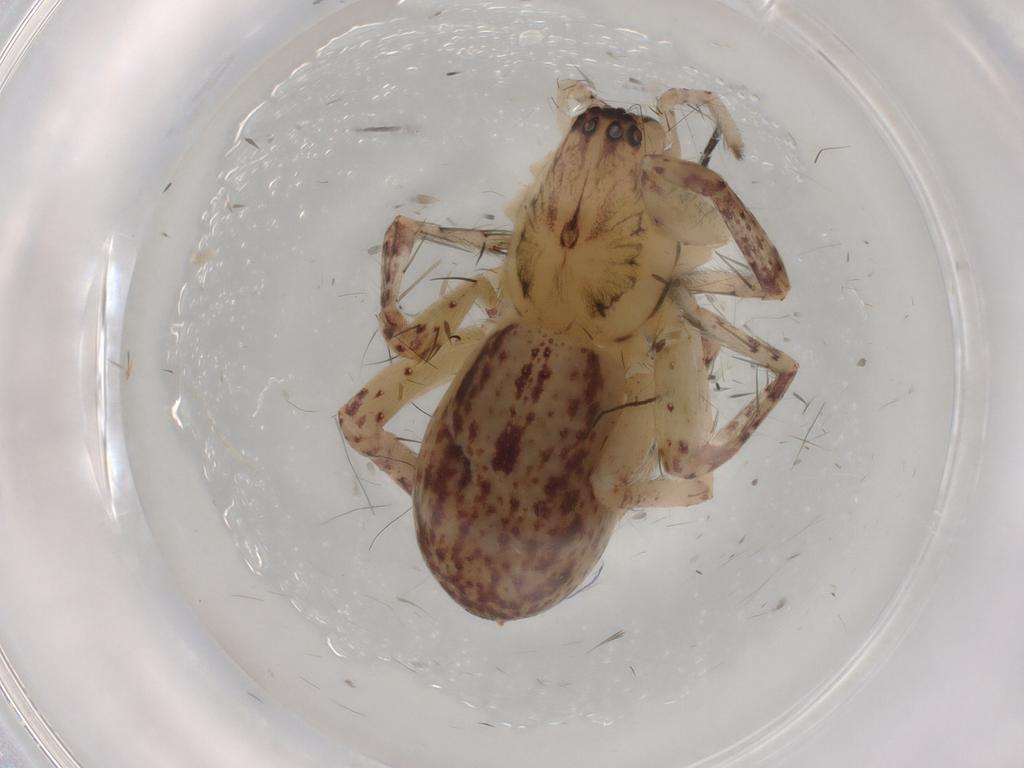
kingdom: Animalia
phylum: Arthropoda
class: Arachnida
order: Araneae
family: Anyphaenidae
